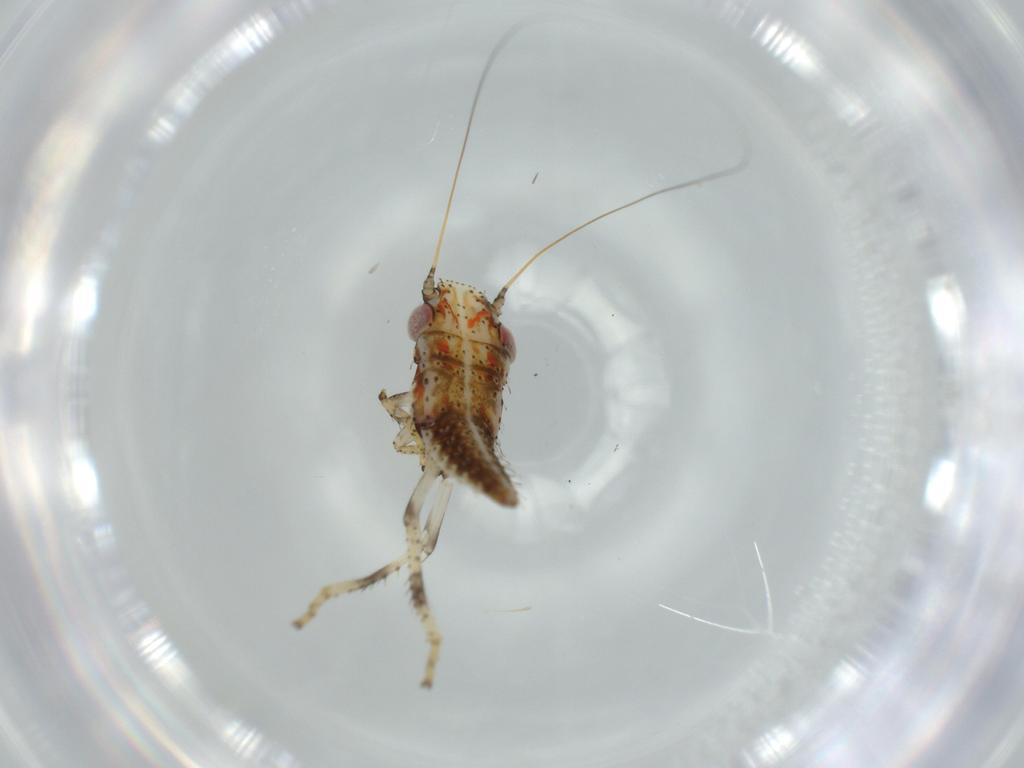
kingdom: Animalia
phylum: Arthropoda
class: Insecta
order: Hemiptera
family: Cicadellidae
